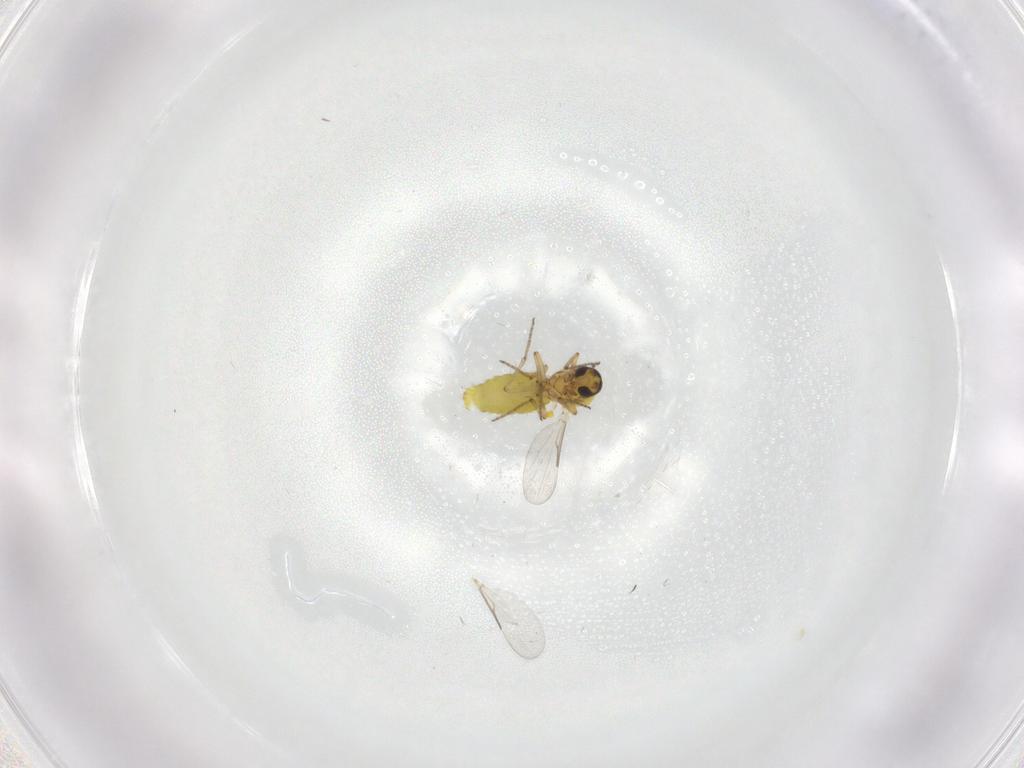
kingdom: Animalia
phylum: Arthropoda
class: Insecta
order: Diptera
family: Ceratopogonidae
